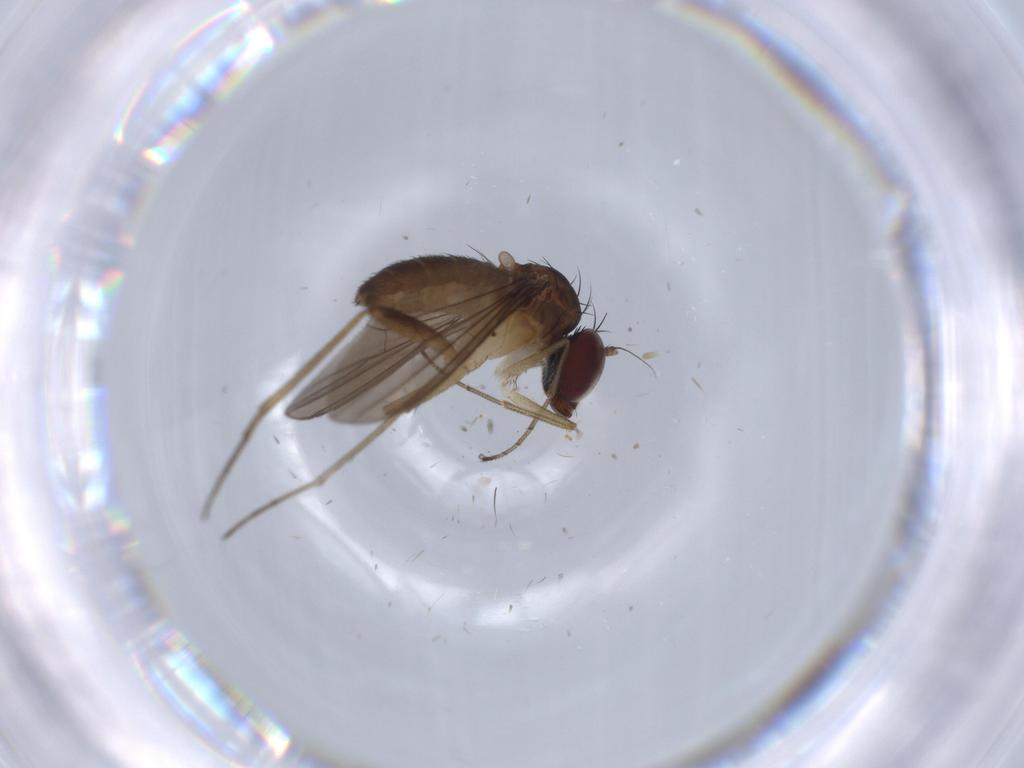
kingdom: Animalia
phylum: Arthropoda
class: Insecta
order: Diptera
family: Dolichopodidae
